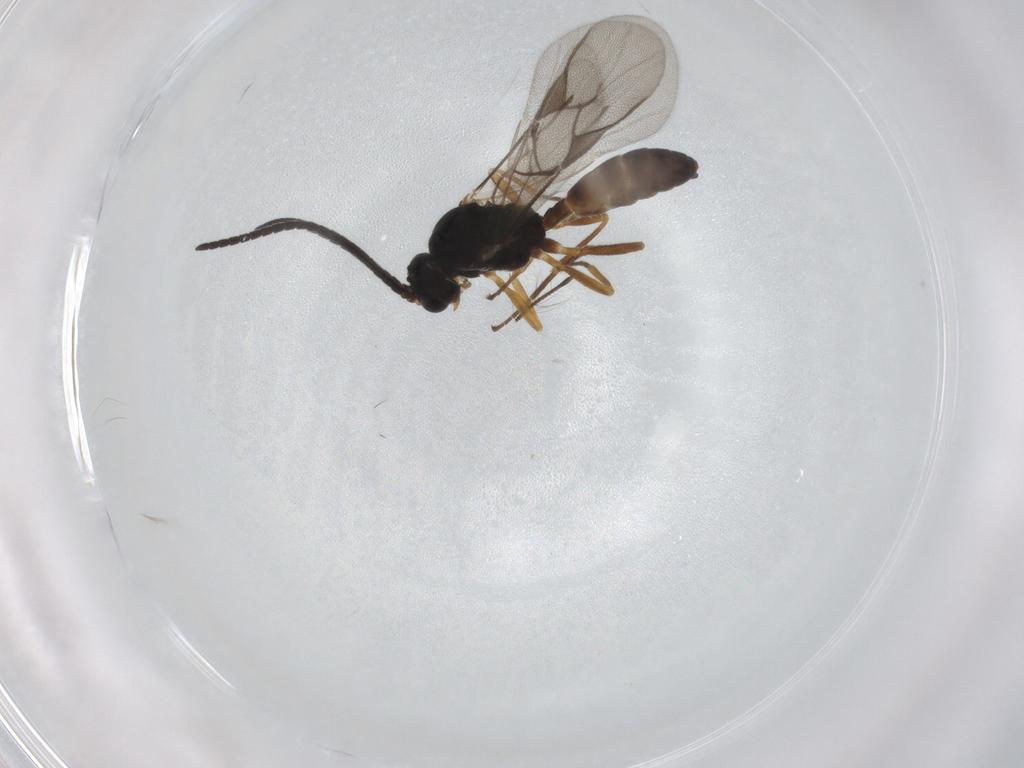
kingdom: Animalia
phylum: Arthropoda
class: Insecta
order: Hymenoptera
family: Braconidae
